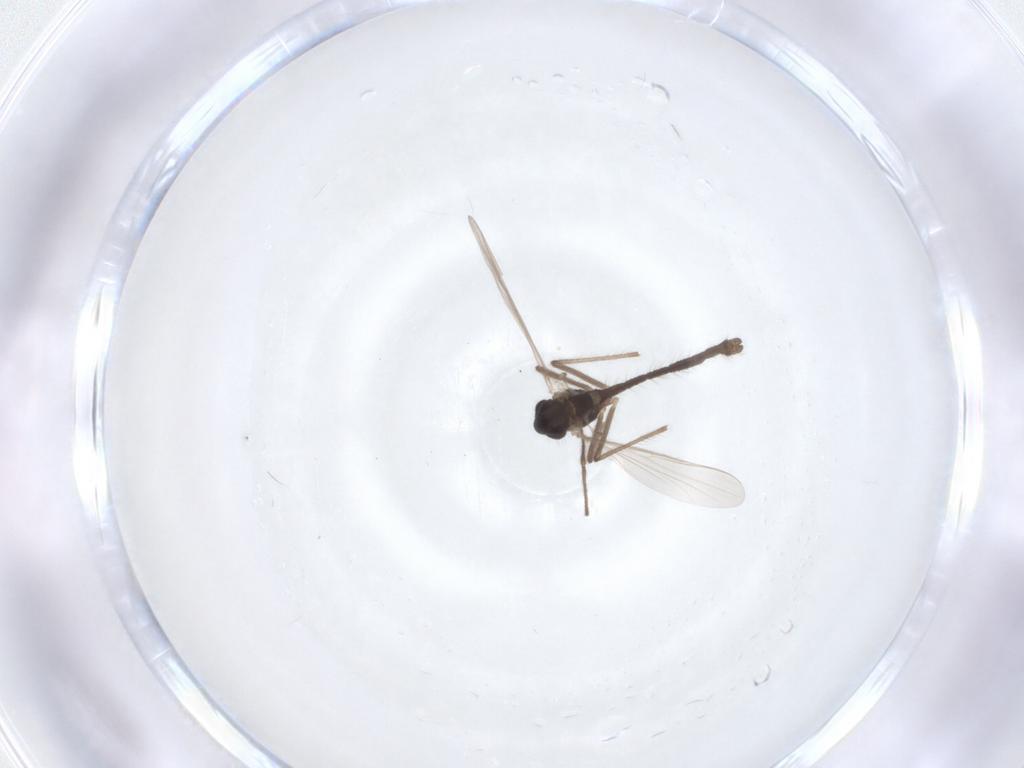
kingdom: Animalia
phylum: Arthropoda
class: Insecta
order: Diptera
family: Chironomidae
